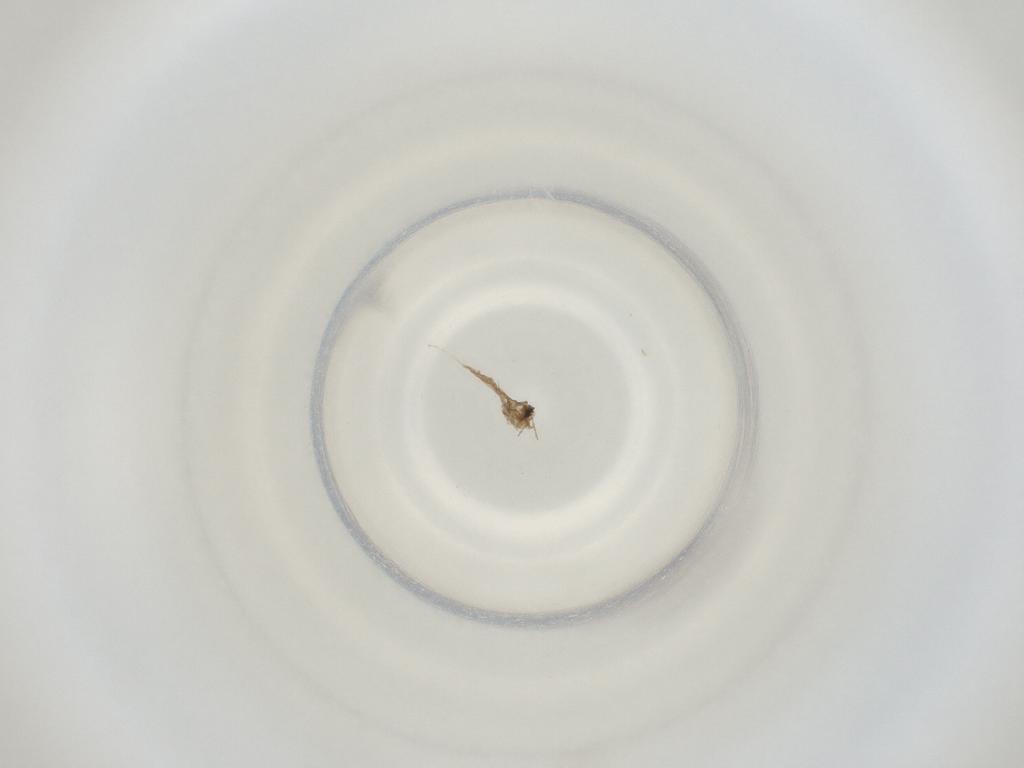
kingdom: Animalia
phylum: Arthropoda
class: Insecta
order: Diptera
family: Cecidomyiidae
